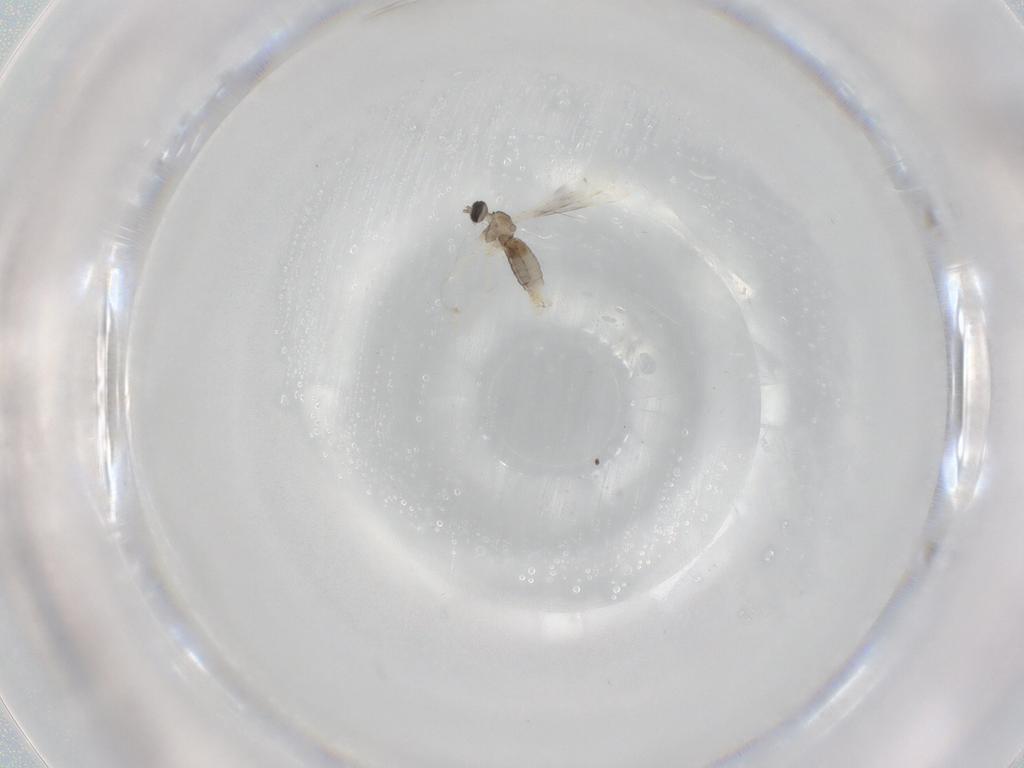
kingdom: Animalia
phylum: Arthropoda
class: Insecta
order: Diptera
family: Cecidomyiidae
